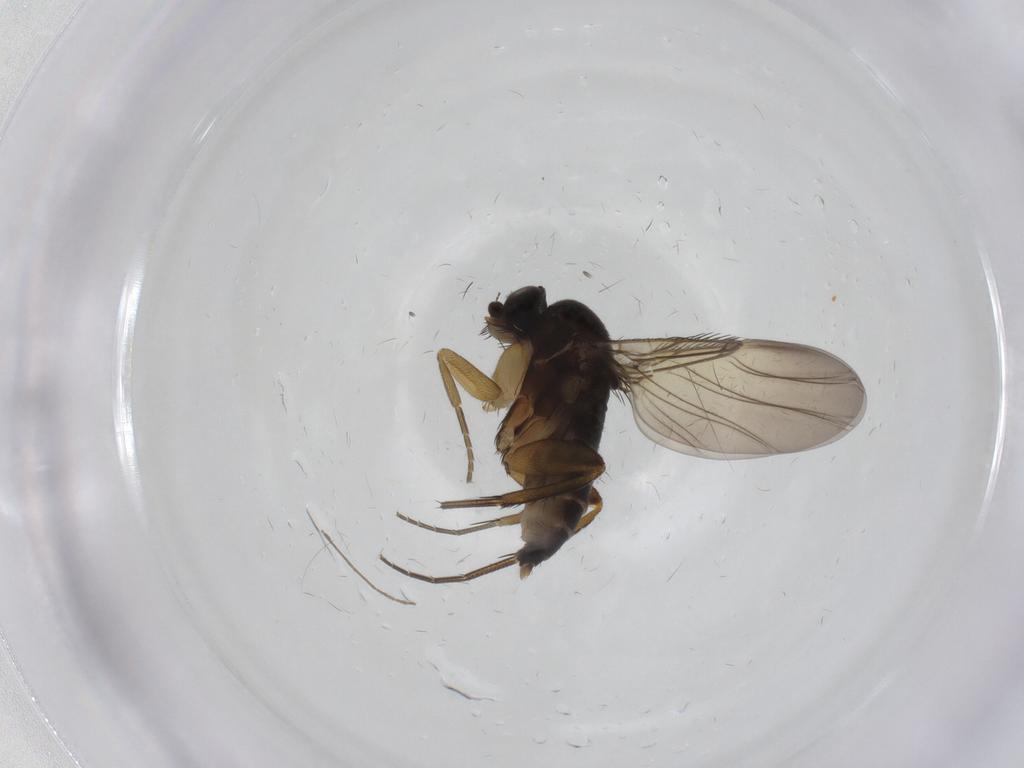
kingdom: Animalia
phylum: Arthropoda
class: Insecta
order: Diptera
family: Phoridae
